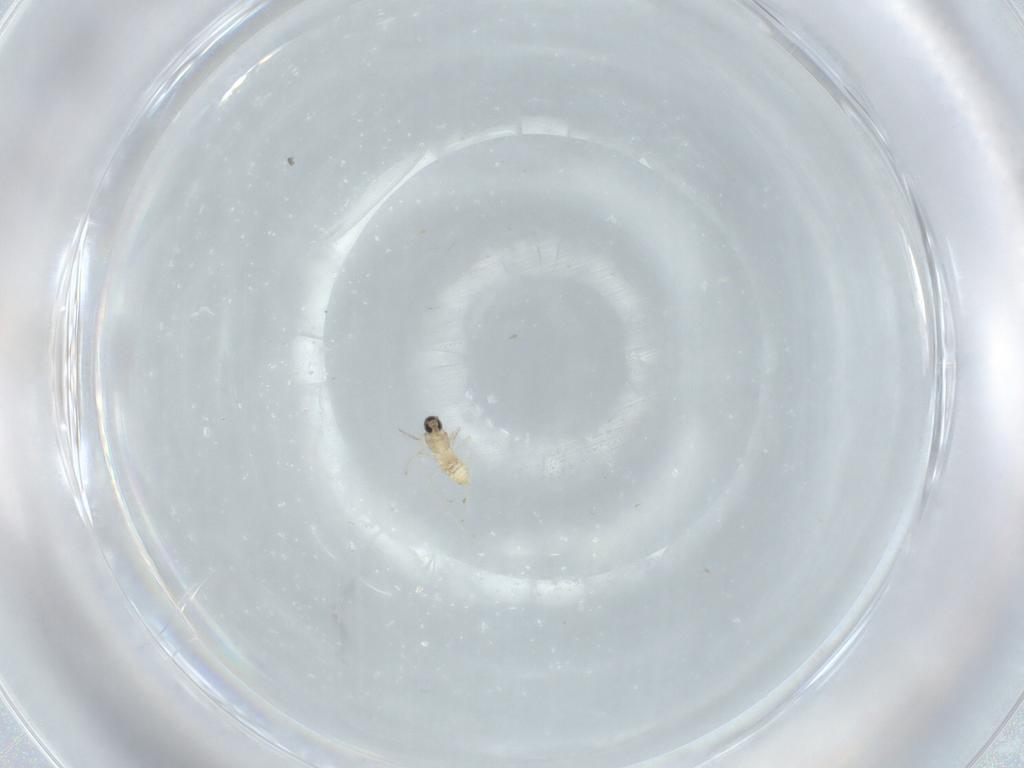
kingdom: Animalia
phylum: Arthropoda
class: Insecta
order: Diptera
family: Cecidomyiidae
